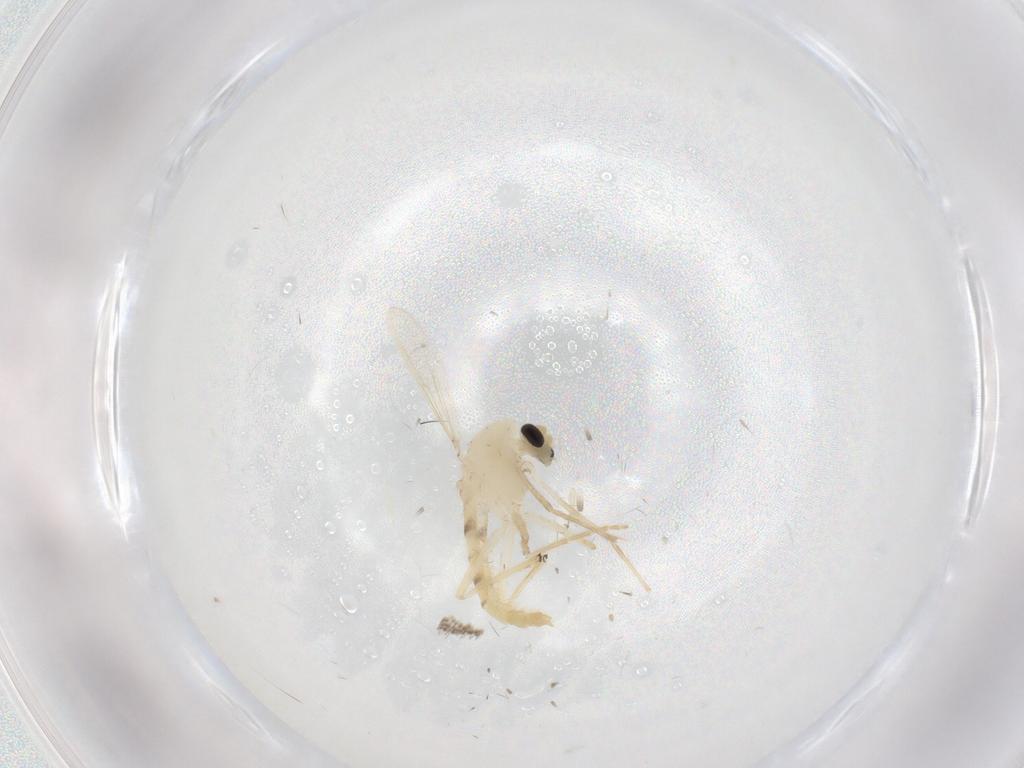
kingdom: Animalia
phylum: Arthropoda
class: Insecta
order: Diptera
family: Chironomidae
